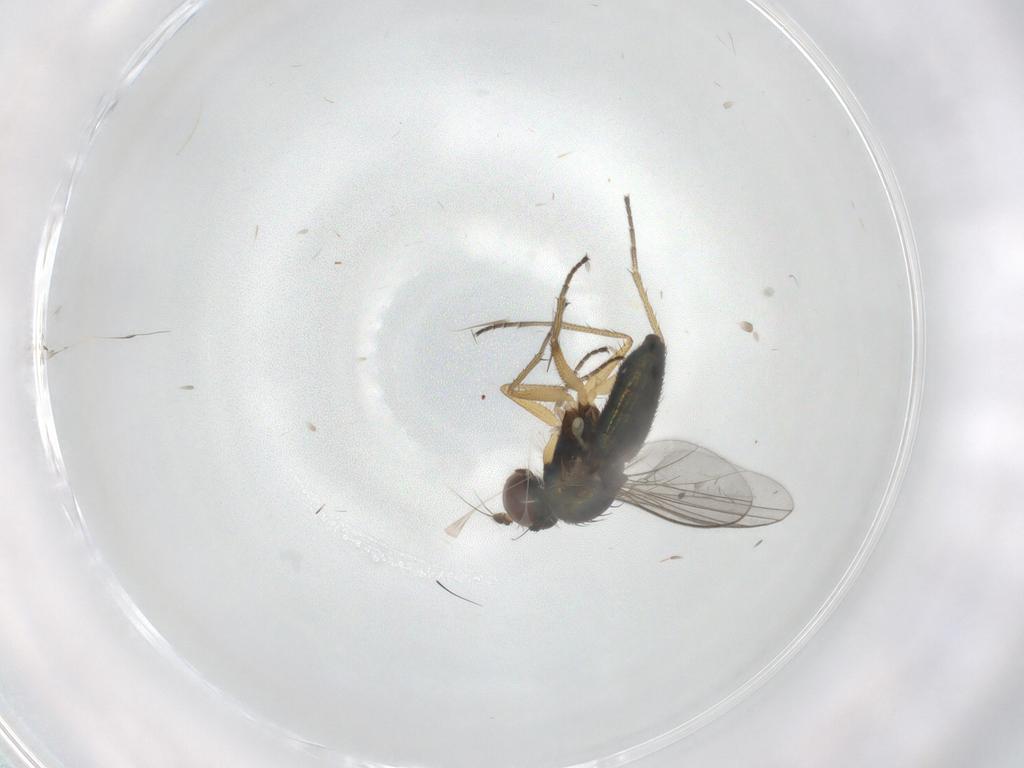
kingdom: Animalia
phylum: Arthropoda
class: Insecta
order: Diptera
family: Dolichopodidae
